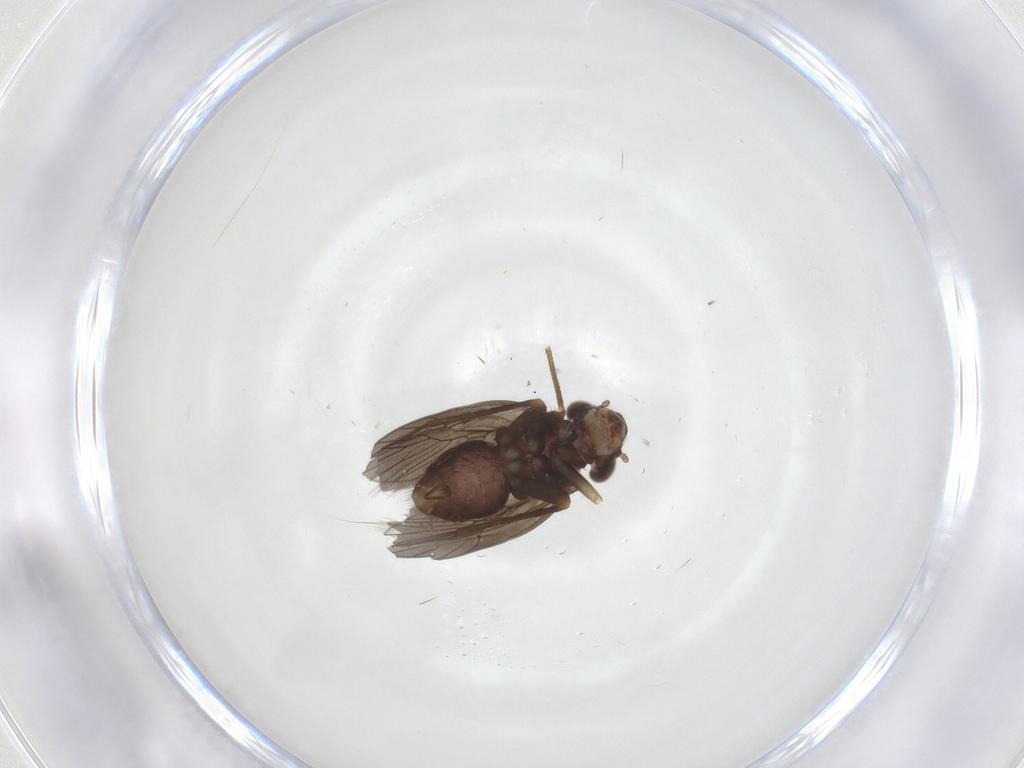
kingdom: Animalia
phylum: Arthropoda
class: Insecta
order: Psocodea
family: Lepidopsocidae
